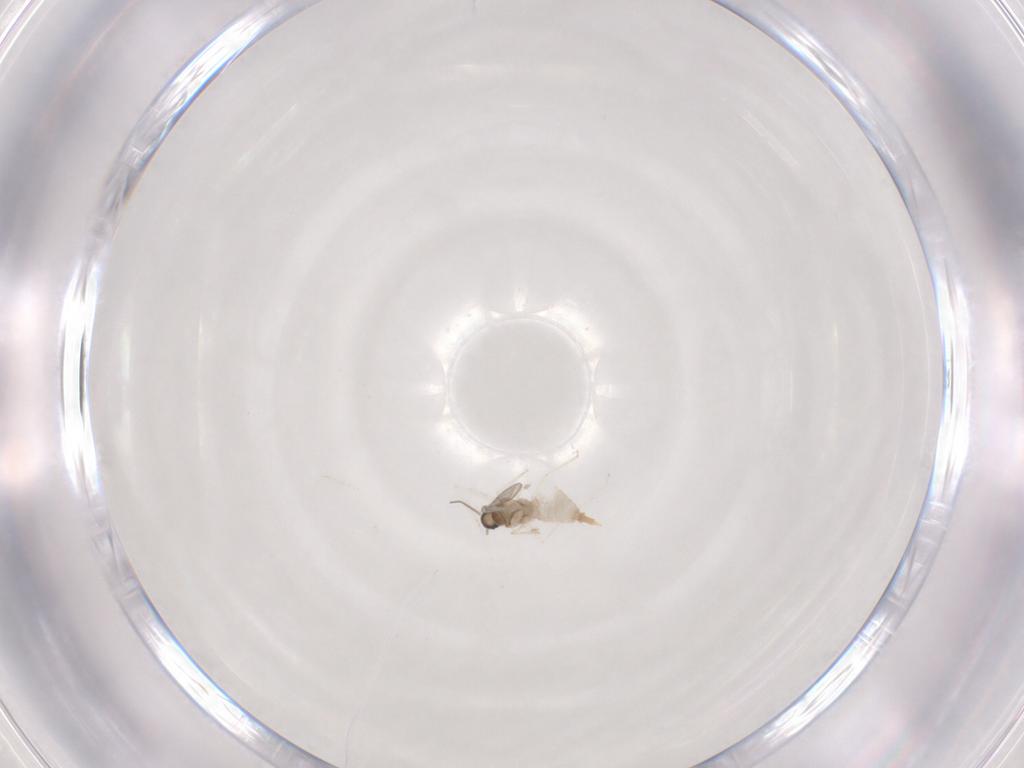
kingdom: Animalia
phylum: Arthropoda
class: Insecta
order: Diptera
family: Cecidomyiidae
